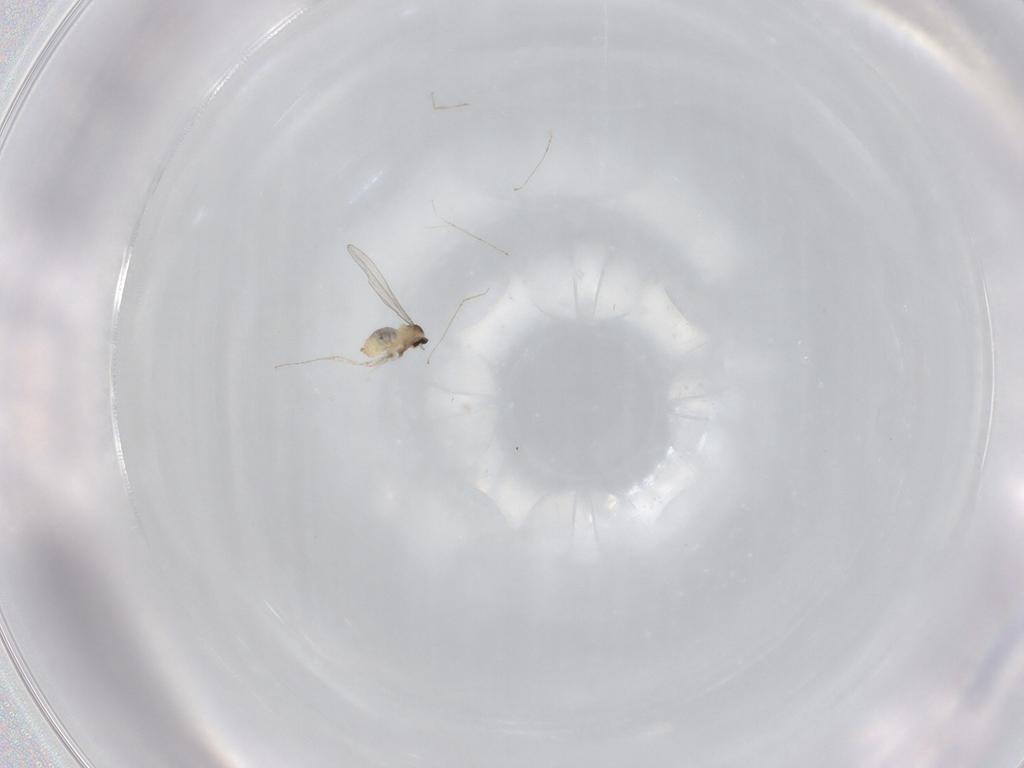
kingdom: Animalia
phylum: Arthropoda
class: Insecta
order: Diptera
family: Cecidomyiidae
